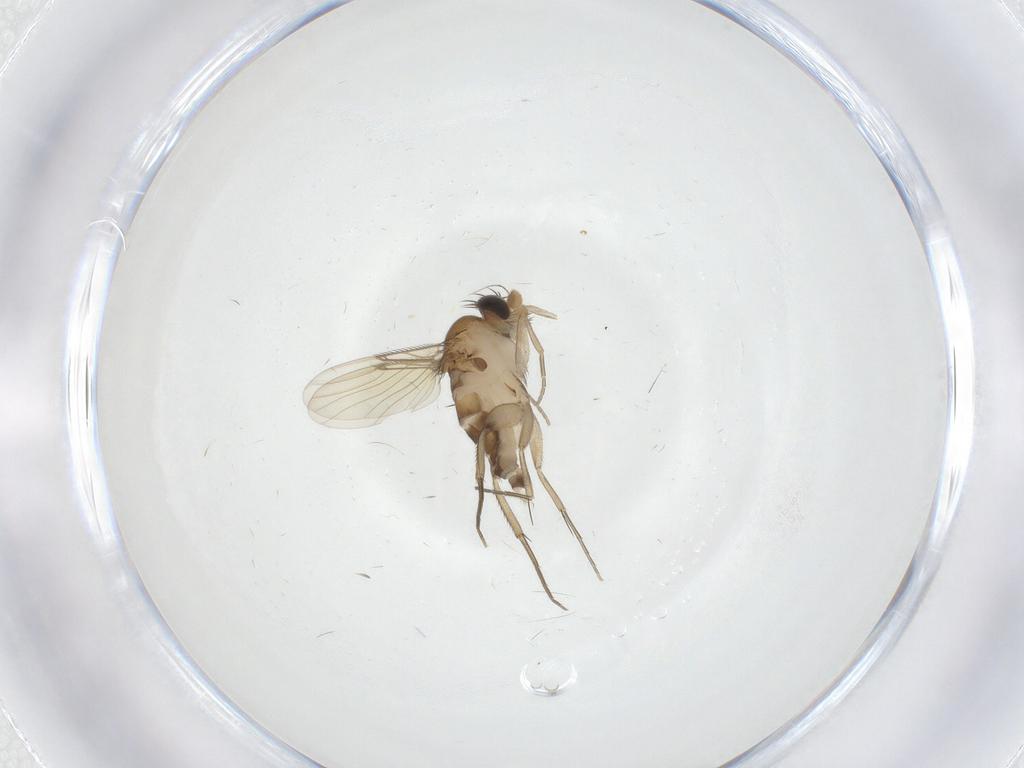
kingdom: Animalia
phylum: Arthropoda
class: Insecta
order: Diptera
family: Phoridae
